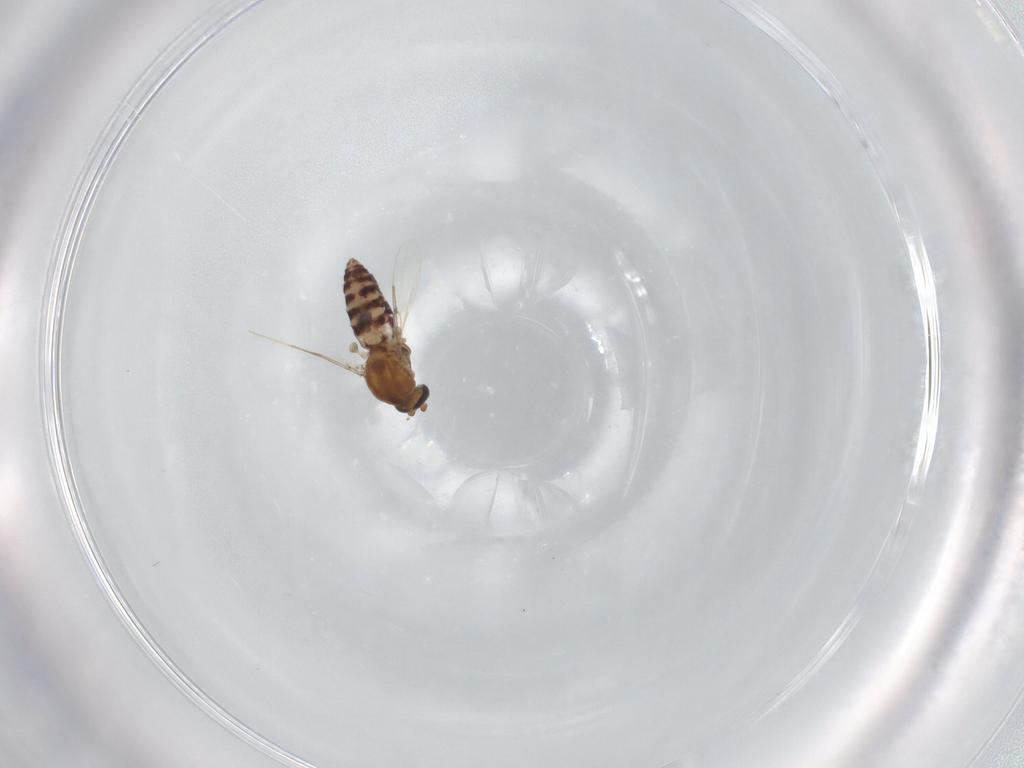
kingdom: Animalia
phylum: Arthropoda
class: Insecta
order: Diptera
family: Ceratopogonidae
